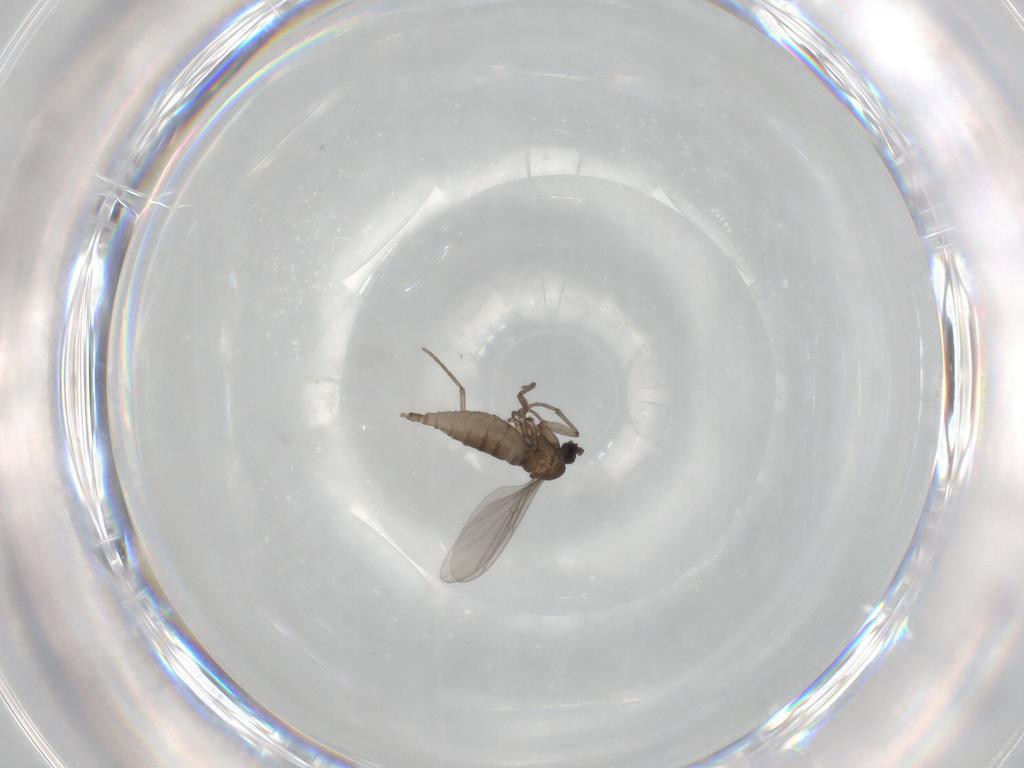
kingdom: Animalia
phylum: Arthropoda
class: Insecta
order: Diptera
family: Sciaridae
